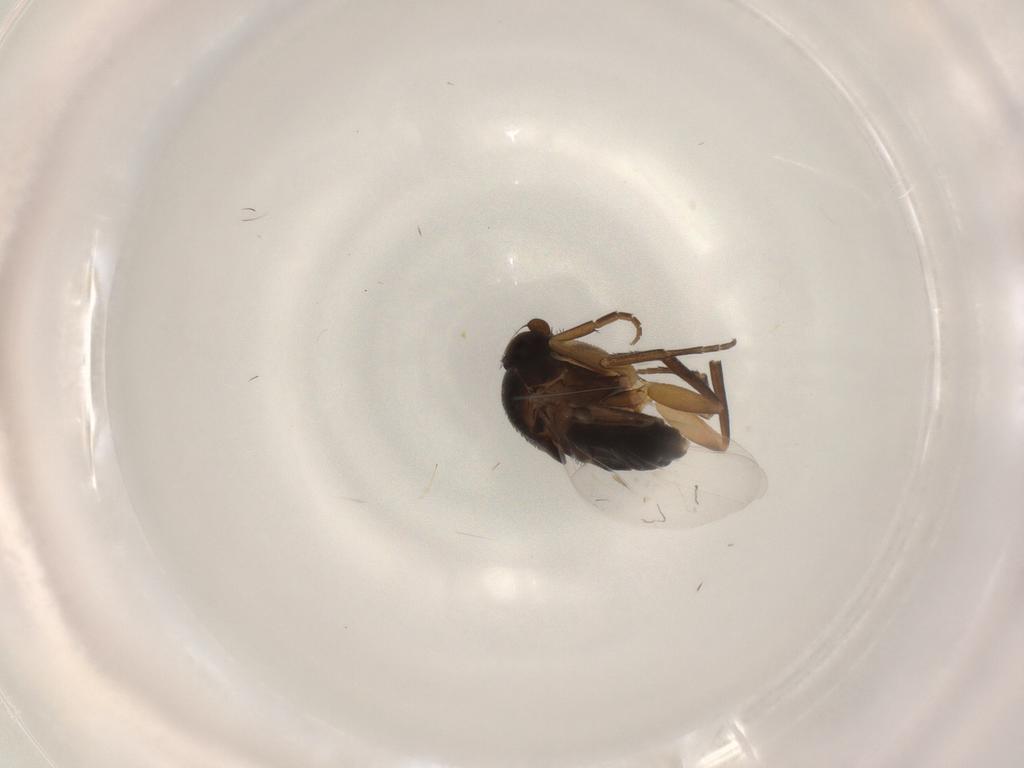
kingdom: Animalia
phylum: Arthropoda
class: Insecta
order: Diptera
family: Phoridae
